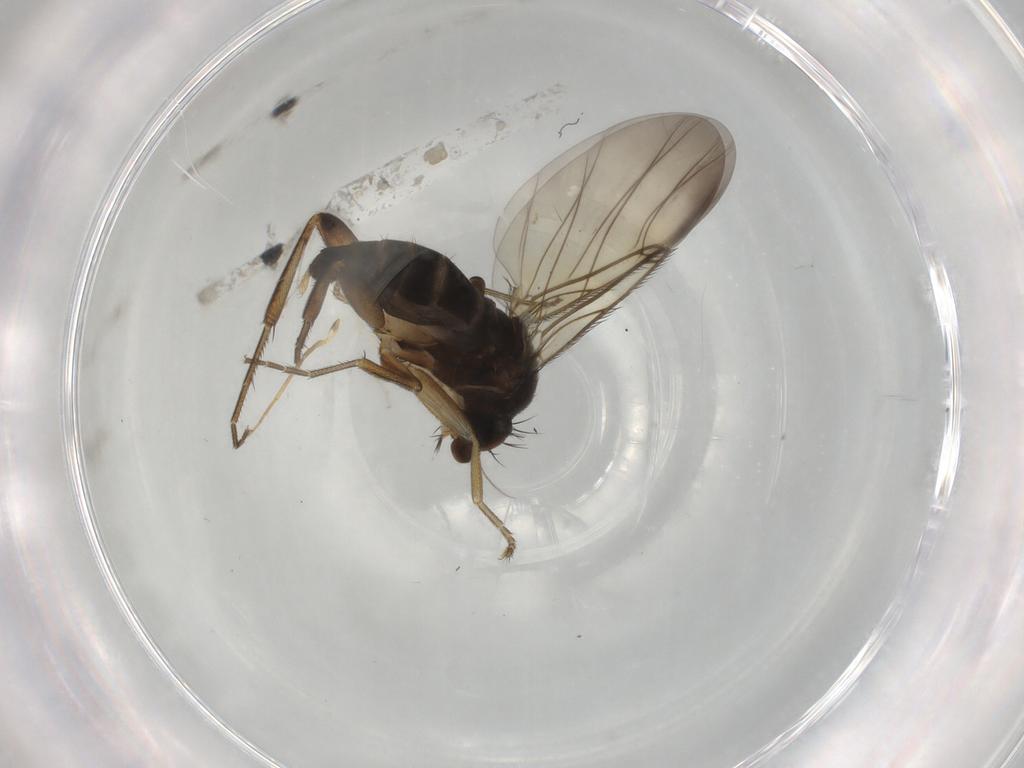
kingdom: Animalia
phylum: Arthropoda
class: Insecta
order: Diptera
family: Phoridae
